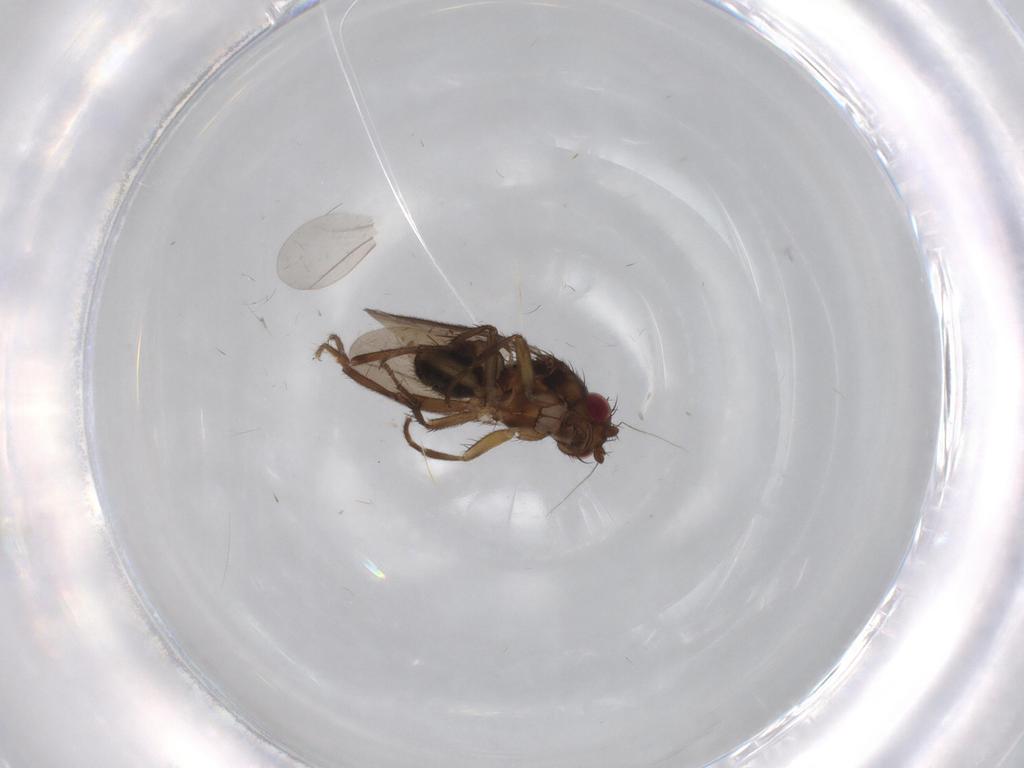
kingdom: Animalia
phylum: Arthropoda
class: Insecta
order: Diptera
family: Sphaeroceridae
